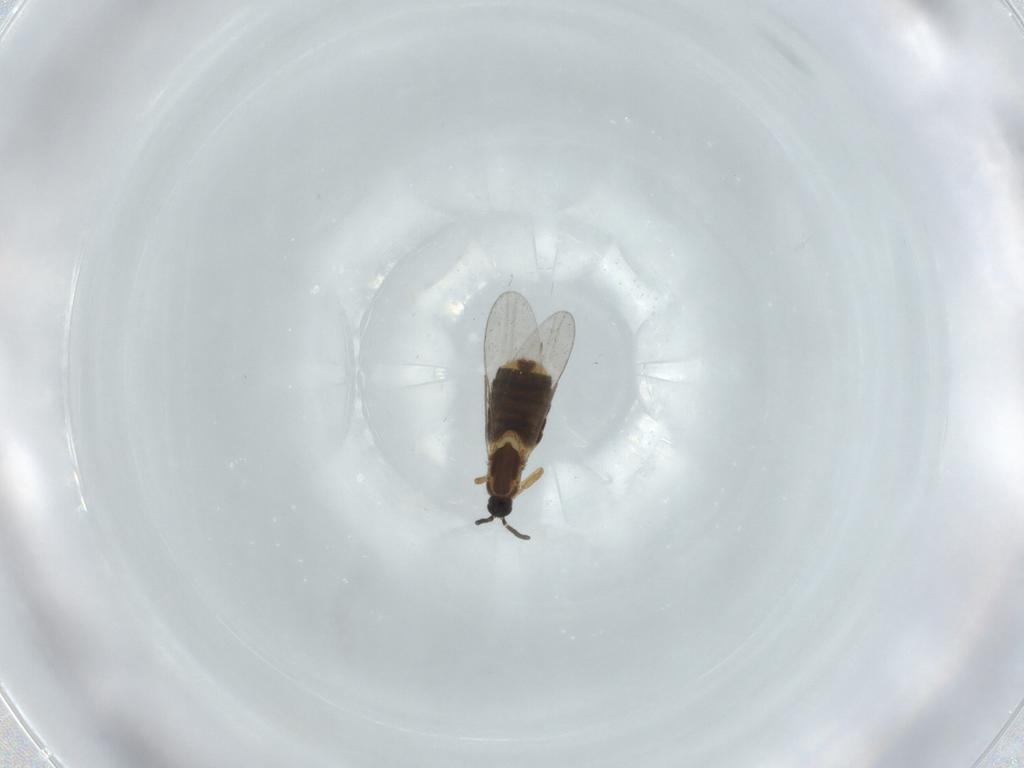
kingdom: Animalia
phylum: Arthropoda
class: Insecta
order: Diptera
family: Scatopsidae
